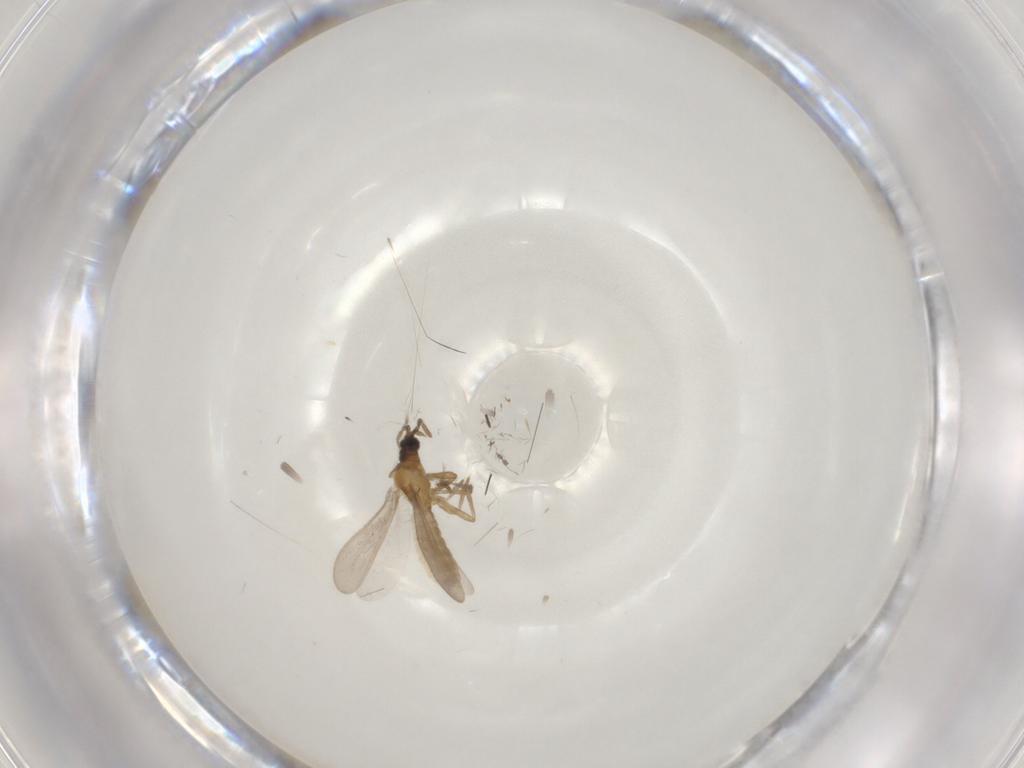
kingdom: Animalia
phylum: Arthropoda
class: Insecta
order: Hemiptera
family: Enicocephalidae
